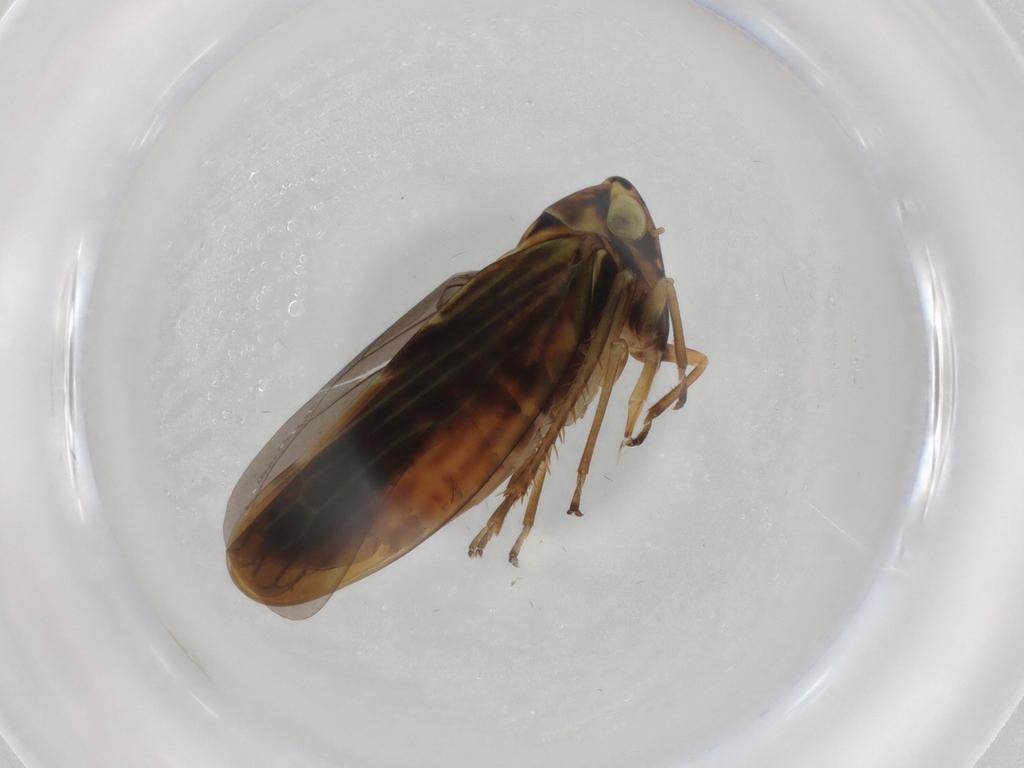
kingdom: Animalia
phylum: Arthropoda
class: Insecta
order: Hemiptera
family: Cicadellidae
